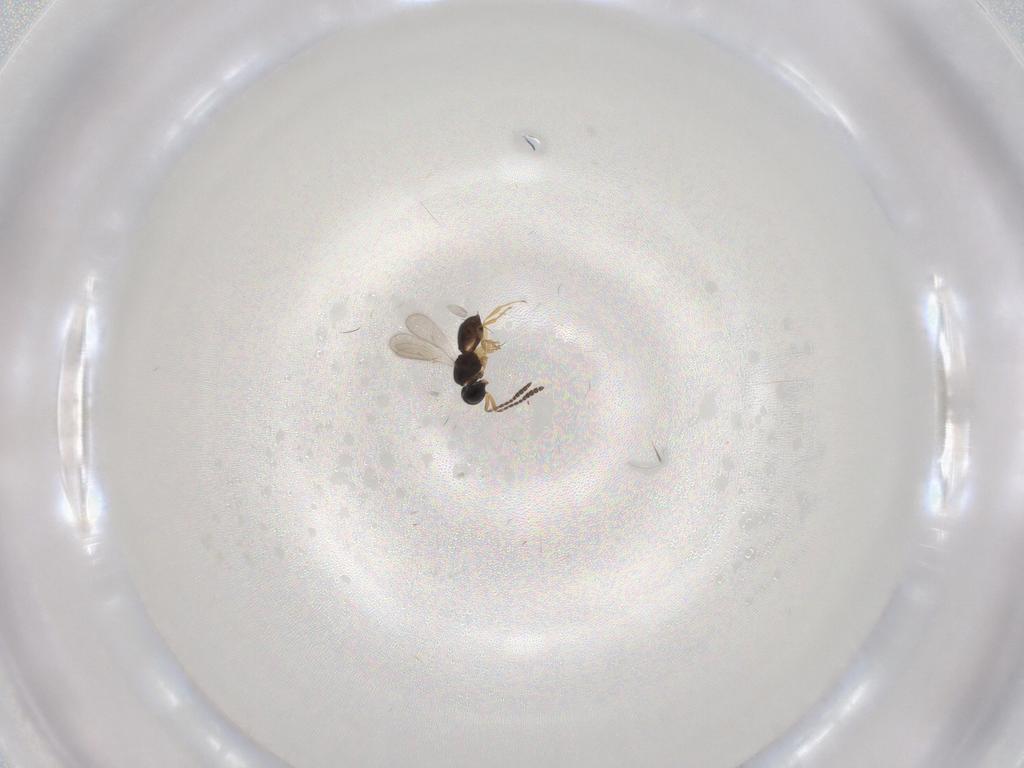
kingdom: Animalia
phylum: Arthropoda
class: Insecta
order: Hymenoptera
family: Scelionidae
